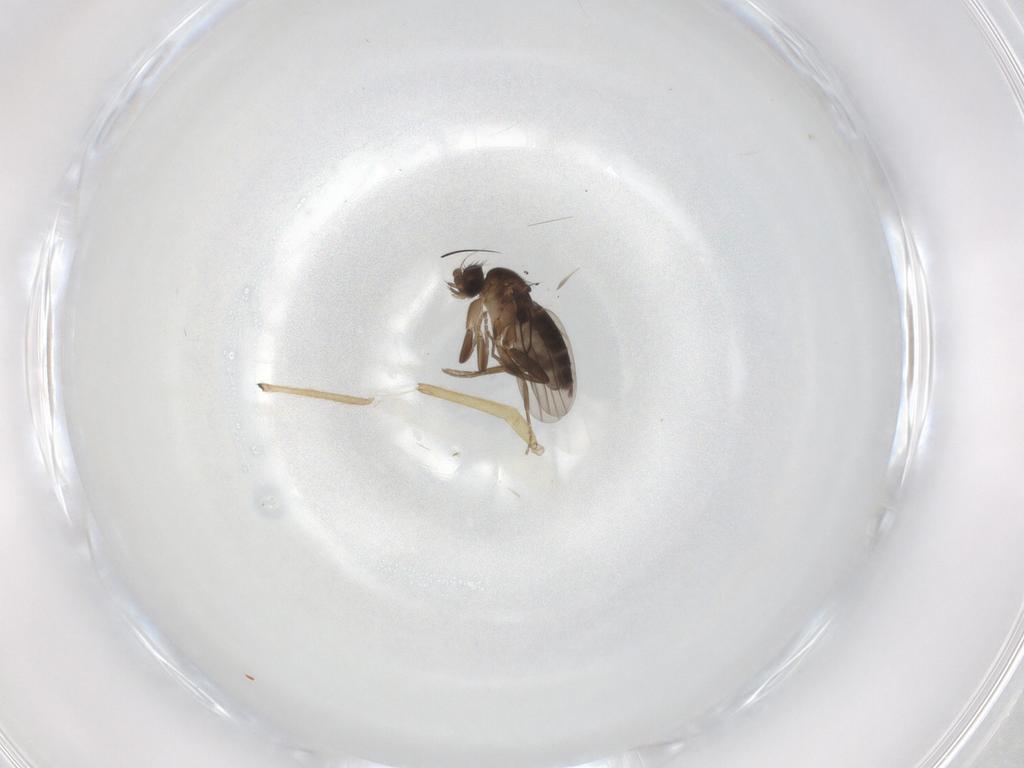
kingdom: Animalia
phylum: Arthropoda
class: Insecta
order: Diptera
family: Phoridae
